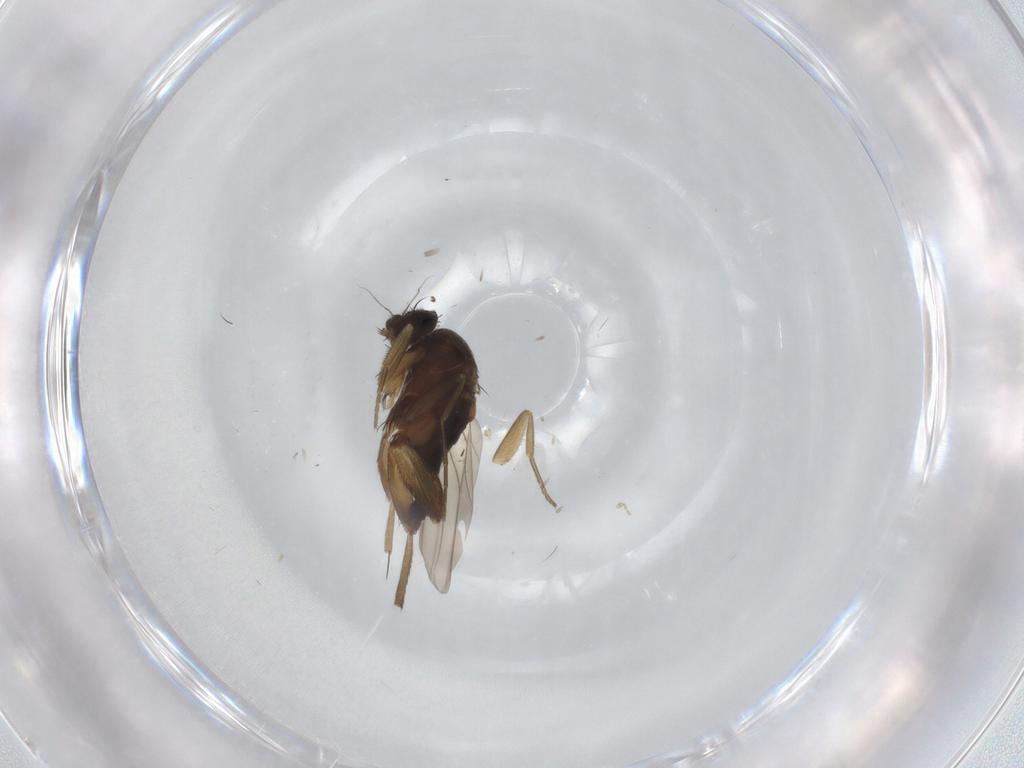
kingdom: Animalia
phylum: Arthropoda
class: Insecta
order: Diptera
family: Phoridae
